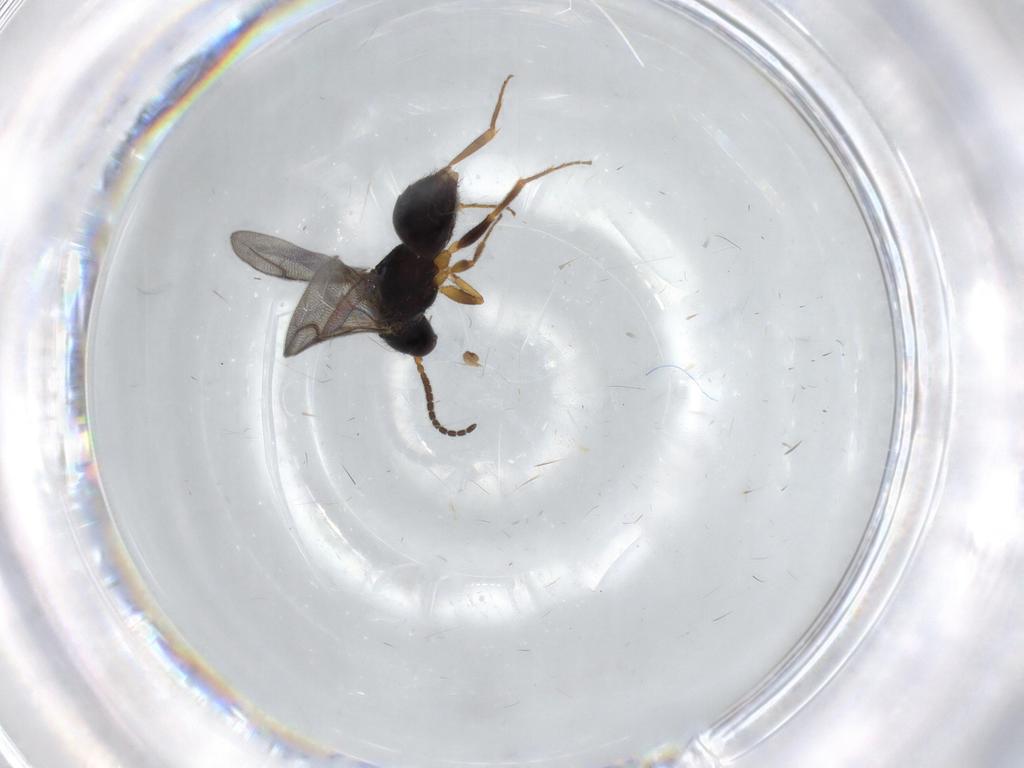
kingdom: Animalia
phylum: Arthropoda
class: Insecta
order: Hymenoptera
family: Bethylidae
